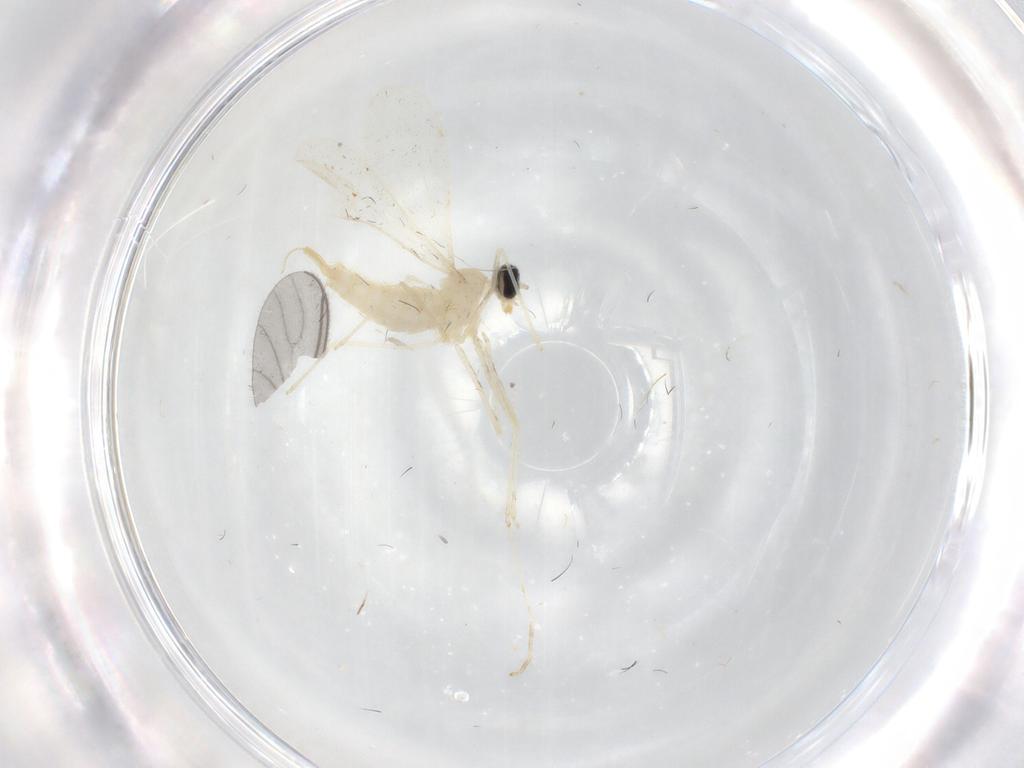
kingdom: Animalia
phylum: Arthropoda
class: Insecta
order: Diptera
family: Cecidomyiidae
